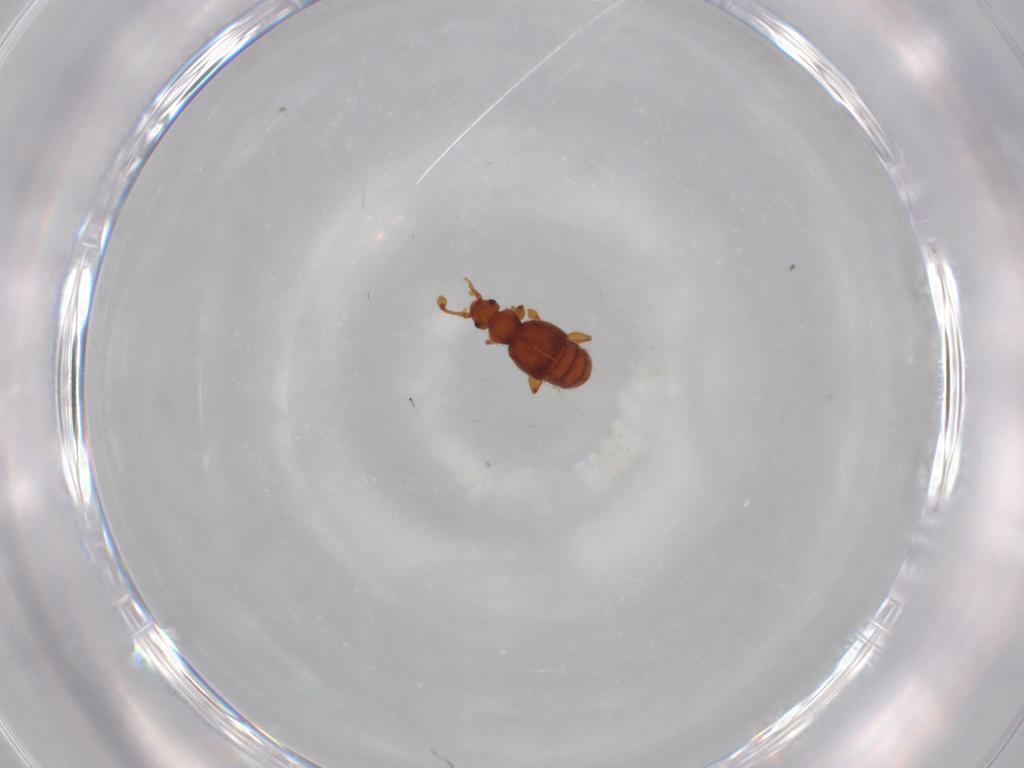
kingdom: Animalia
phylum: Arthropoda
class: Insecta
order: Coleoptera
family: Staphylinidae
